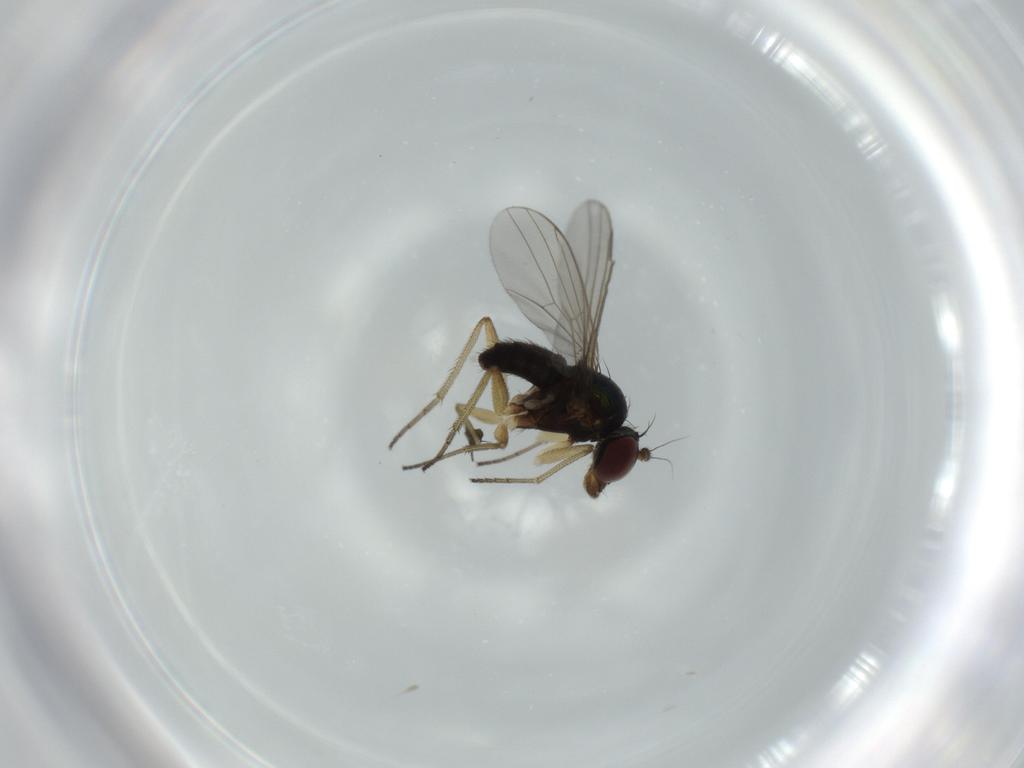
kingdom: Animalia
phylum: Arthropoda
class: Insecta
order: Diptera
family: Dolichopodidae
